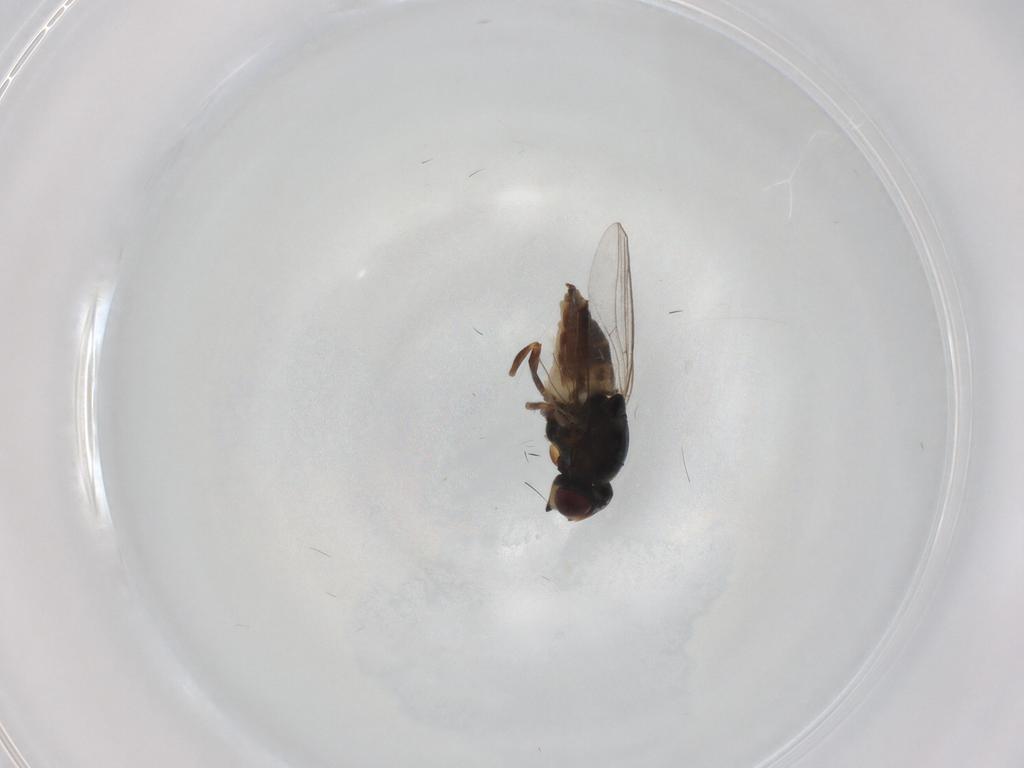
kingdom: Animalia
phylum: Arthropoda
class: Insecta
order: Diptera
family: Chloropidae
